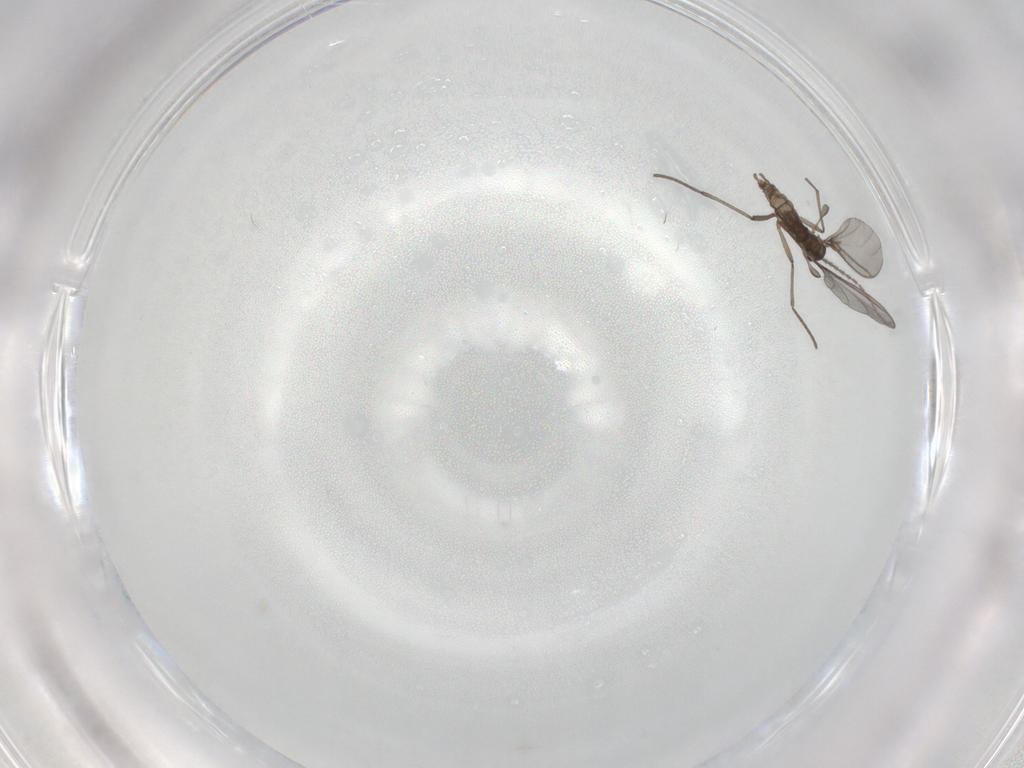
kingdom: Animalia
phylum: Arthropoda
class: Insecta
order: Diptera
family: Sciaridae
